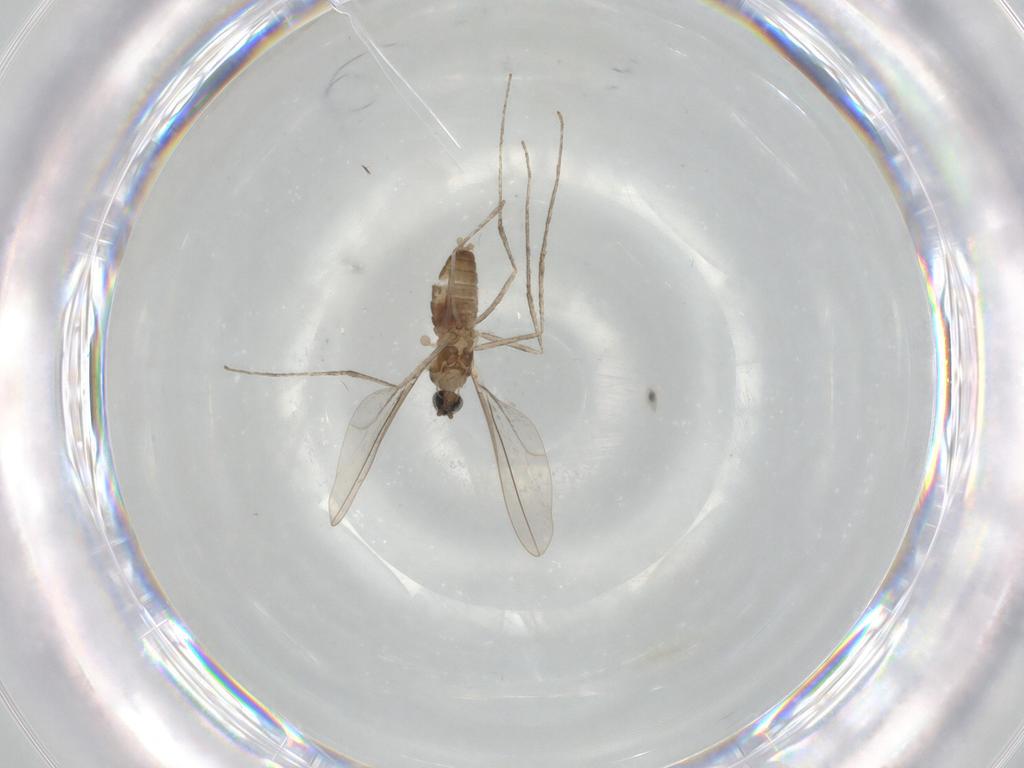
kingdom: Animalia
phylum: Arthropoda
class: Insecta
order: Diptera
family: Cecidomyiidae
